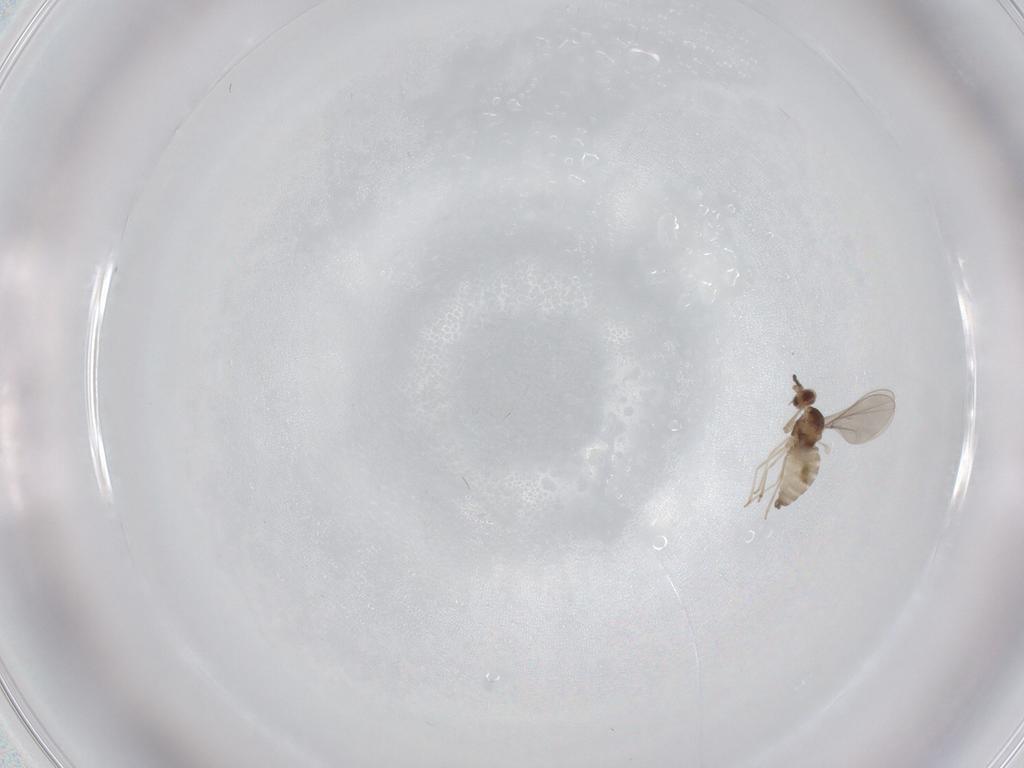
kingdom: Animalia
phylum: Arthropoda
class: Insecta
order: Diptera
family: Cecidomyiidae
